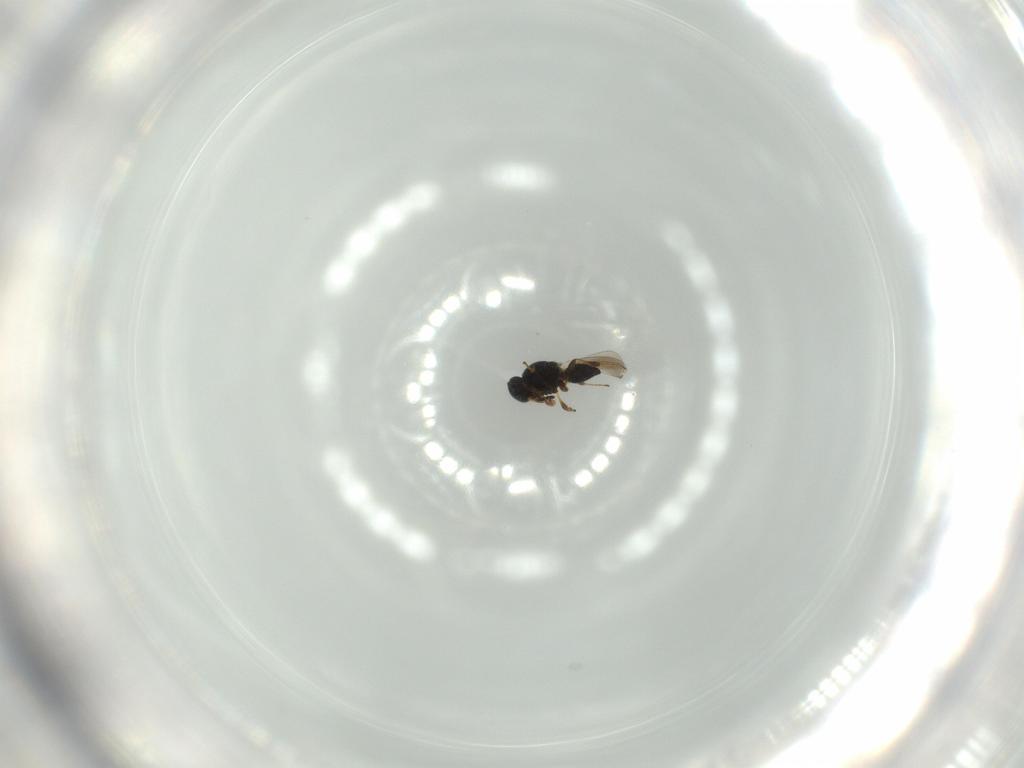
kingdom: Animalia
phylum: Arthropoda
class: Insecta
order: Hymenoptera
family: Platygastridae
